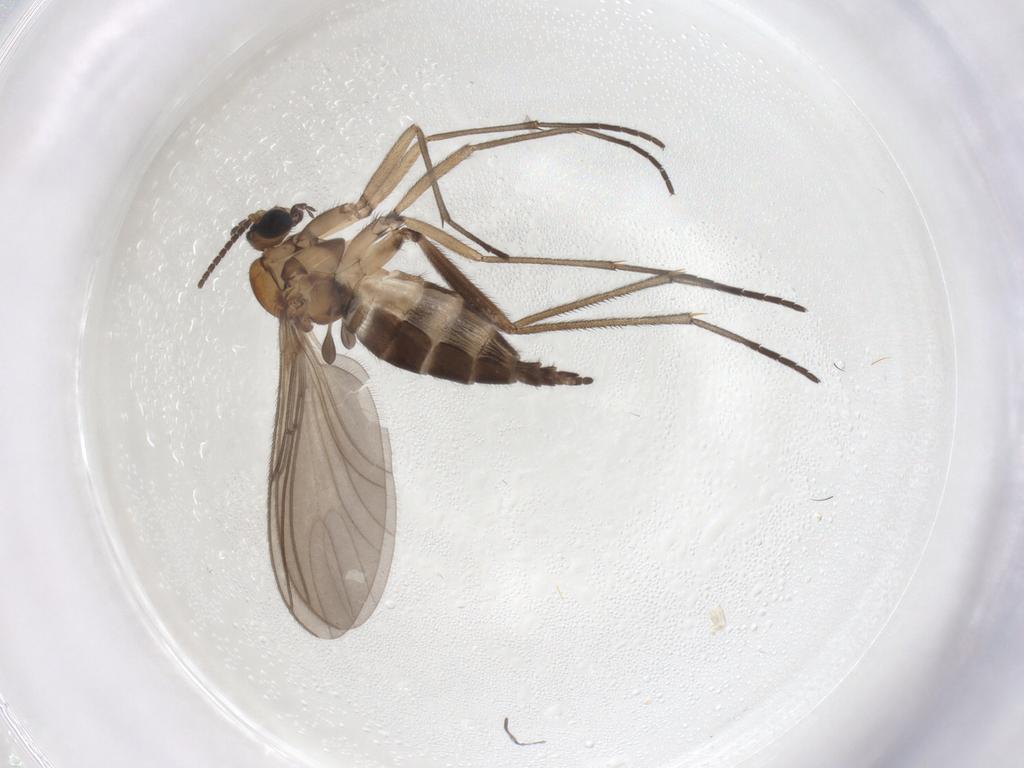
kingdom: Animalia
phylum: Arthropoda
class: Insecta
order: Diptera
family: Sciaridae
